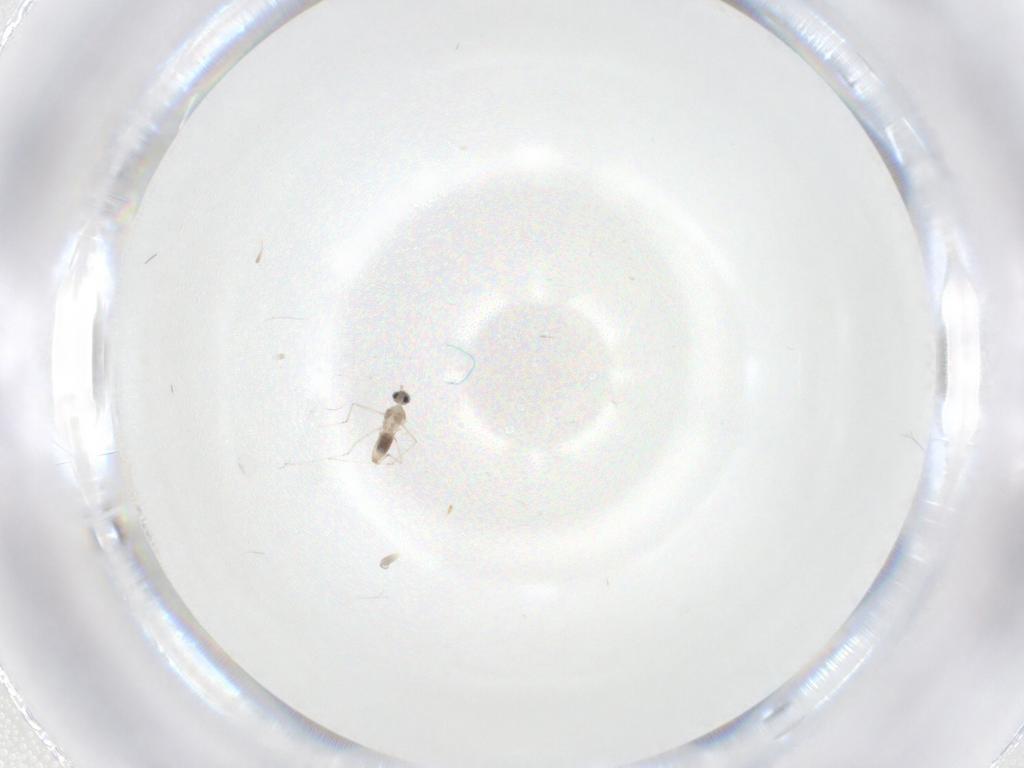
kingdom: Animalia
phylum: Arthropoda
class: Insecta
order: Diptera
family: Cecidomyiidae
